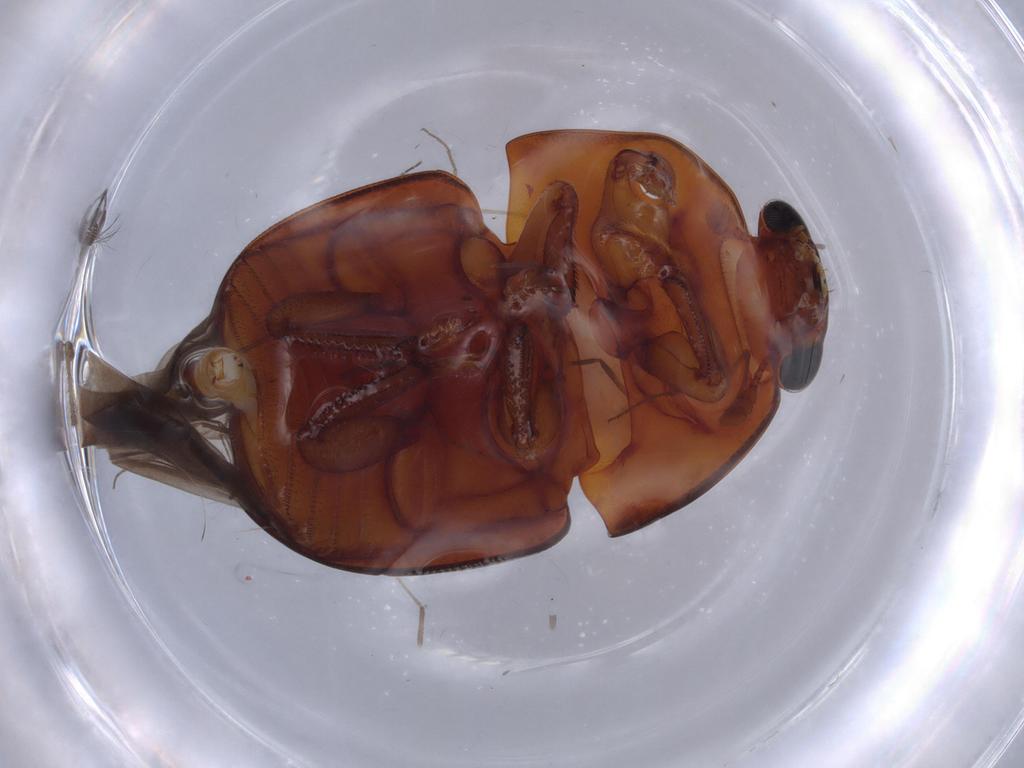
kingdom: Animalia
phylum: Arthropoda
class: Insecta
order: Coleoptera
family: Nitidulidae
